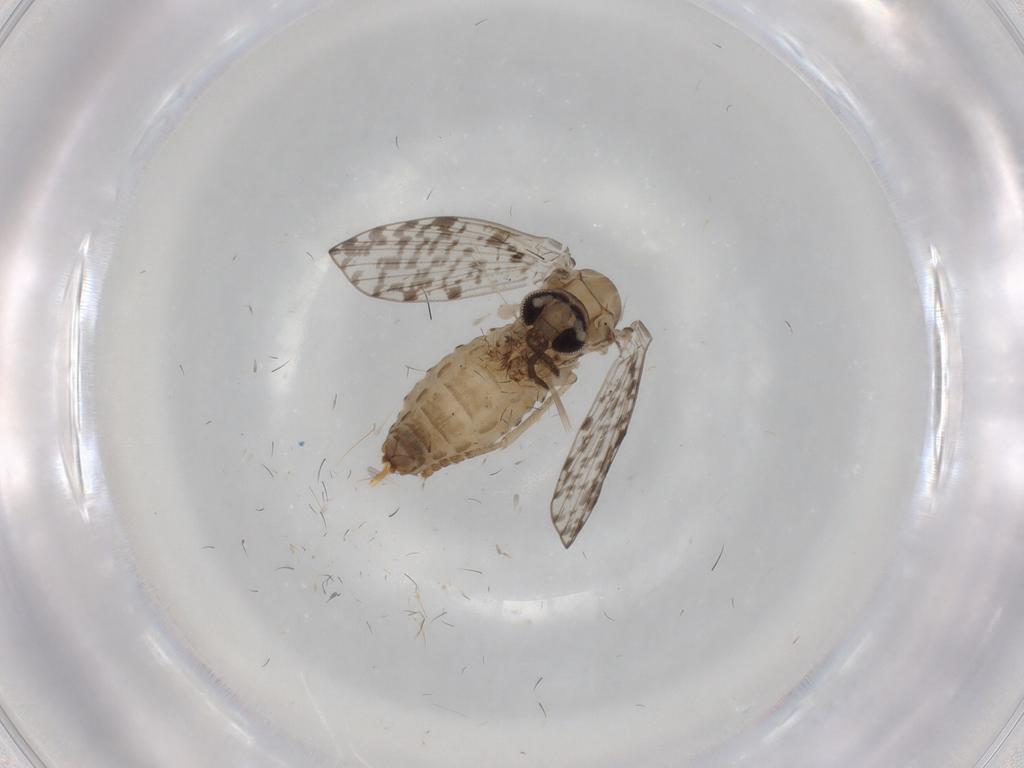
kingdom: Animalia
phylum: Arthropoda
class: Insecta
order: Diptera
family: Psychodidae
